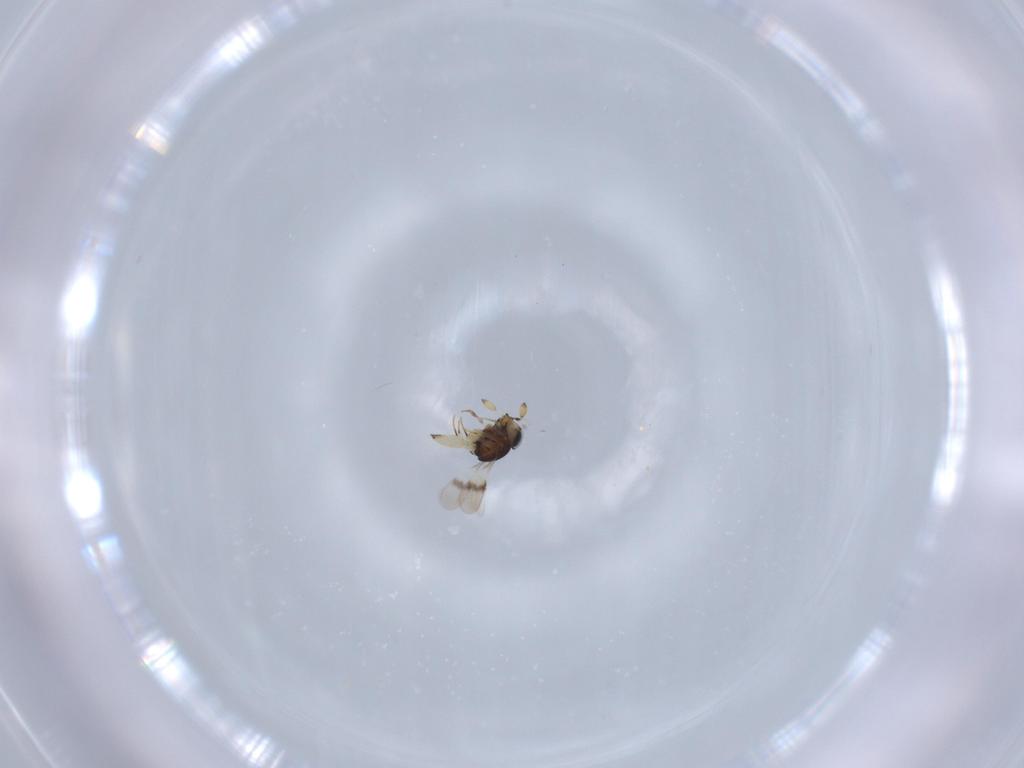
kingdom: Animalia
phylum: Arthropoda
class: Insecta
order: Hymenoptera
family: Scelionidae
